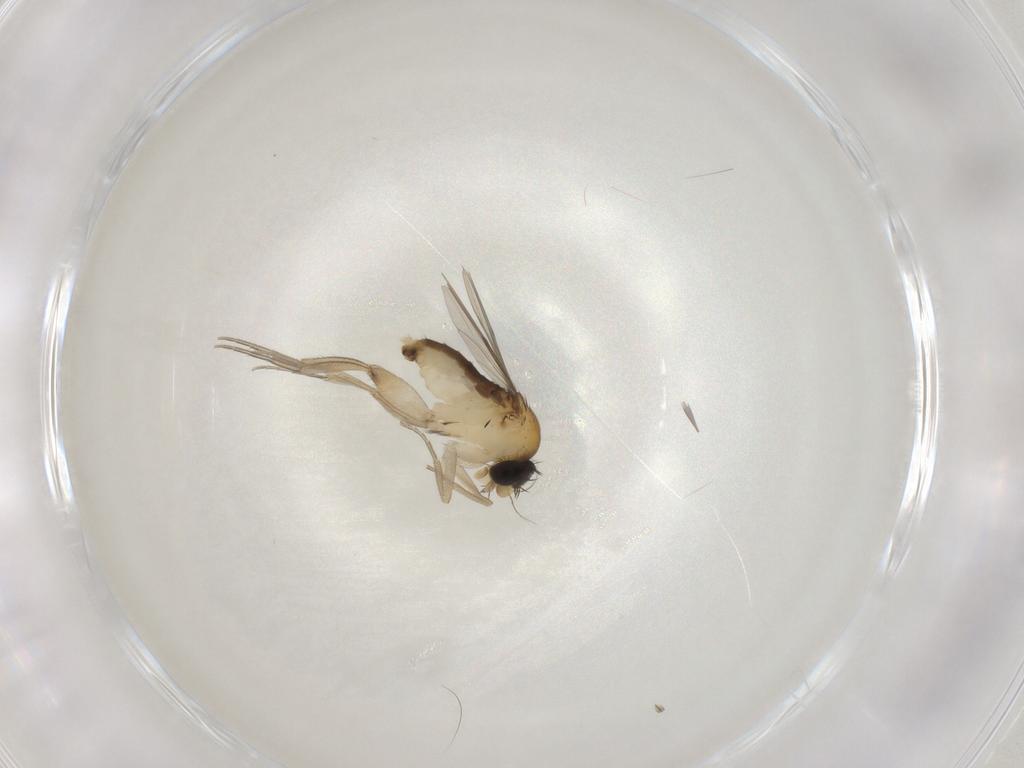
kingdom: Animalia
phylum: Arthropoda
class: Insecta
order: Diptera
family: Phoridae
